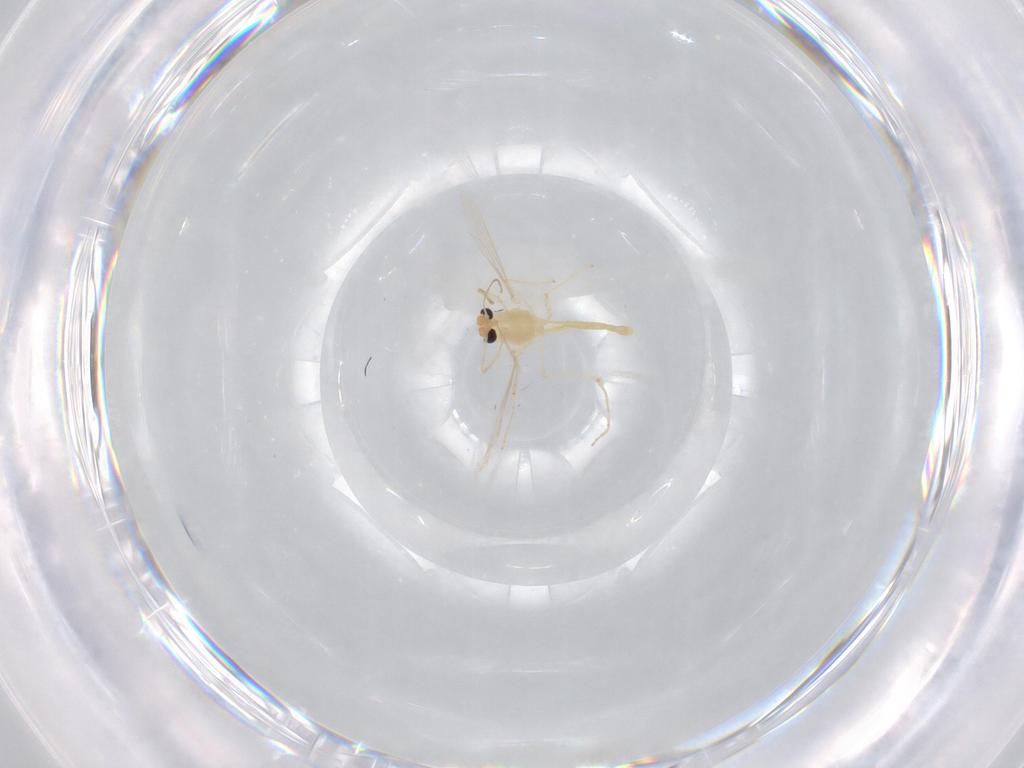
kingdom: Animalia
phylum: Arthropoda
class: Insecta
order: Diptera
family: Chironomidae
